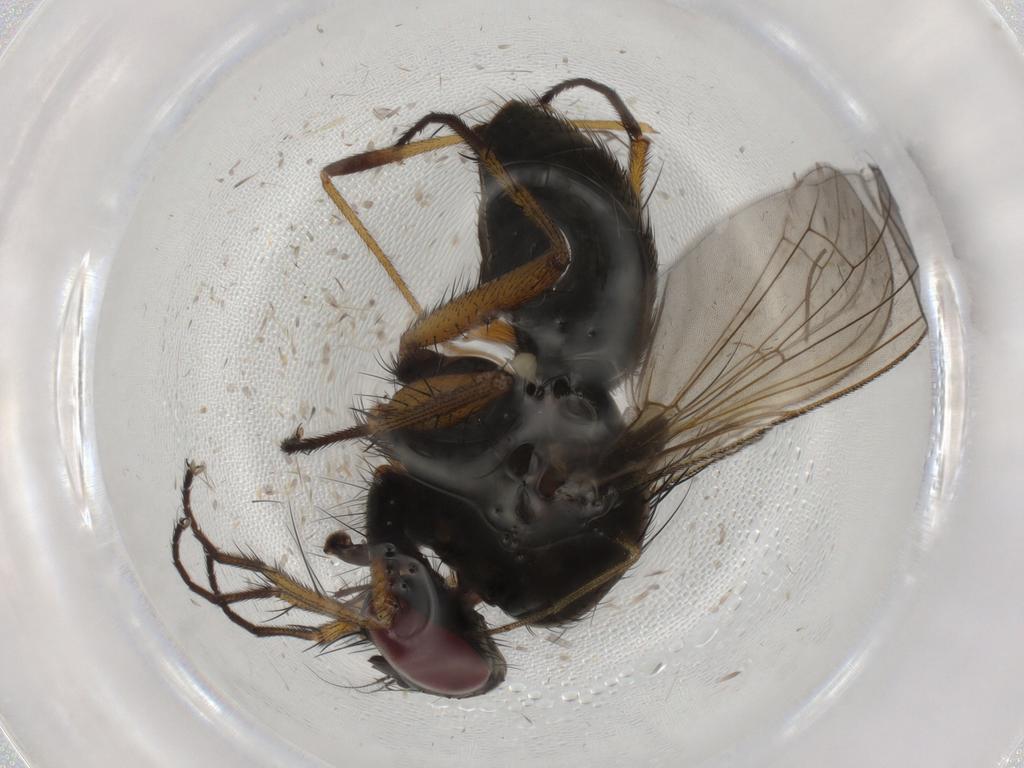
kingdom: Animalia
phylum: Arthropoda
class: Insecta
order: Diptera
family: Muscidae
